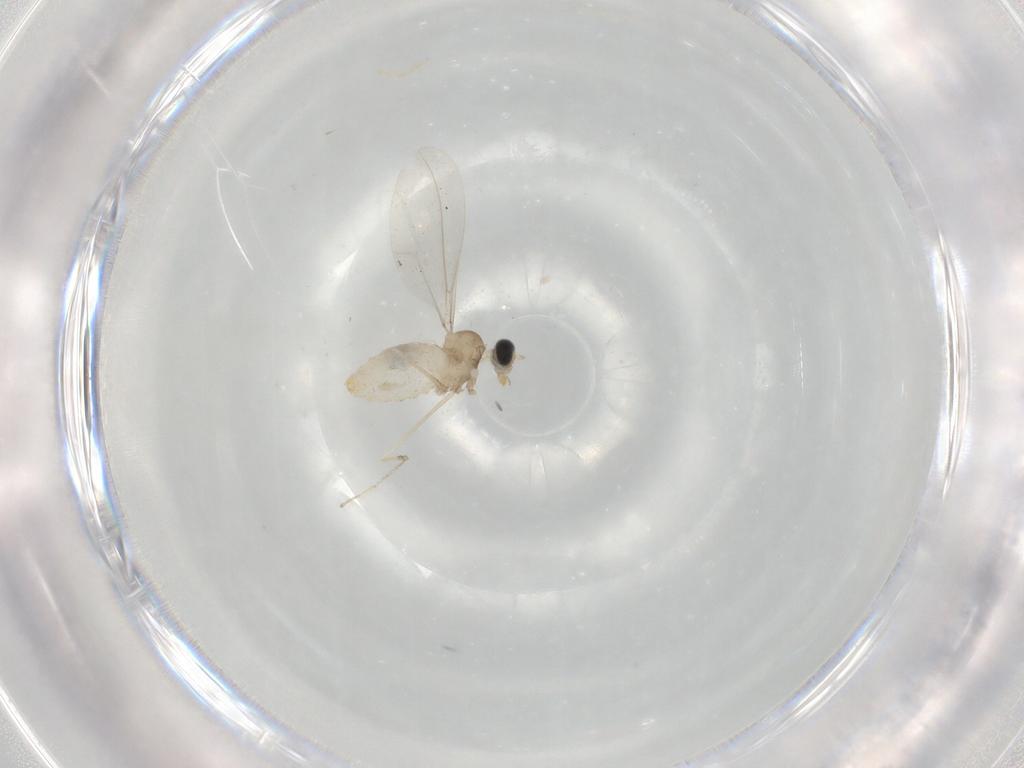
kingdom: Animalia
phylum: Arthropoda
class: Insecta
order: Diptera
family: Cecidomyiidae
